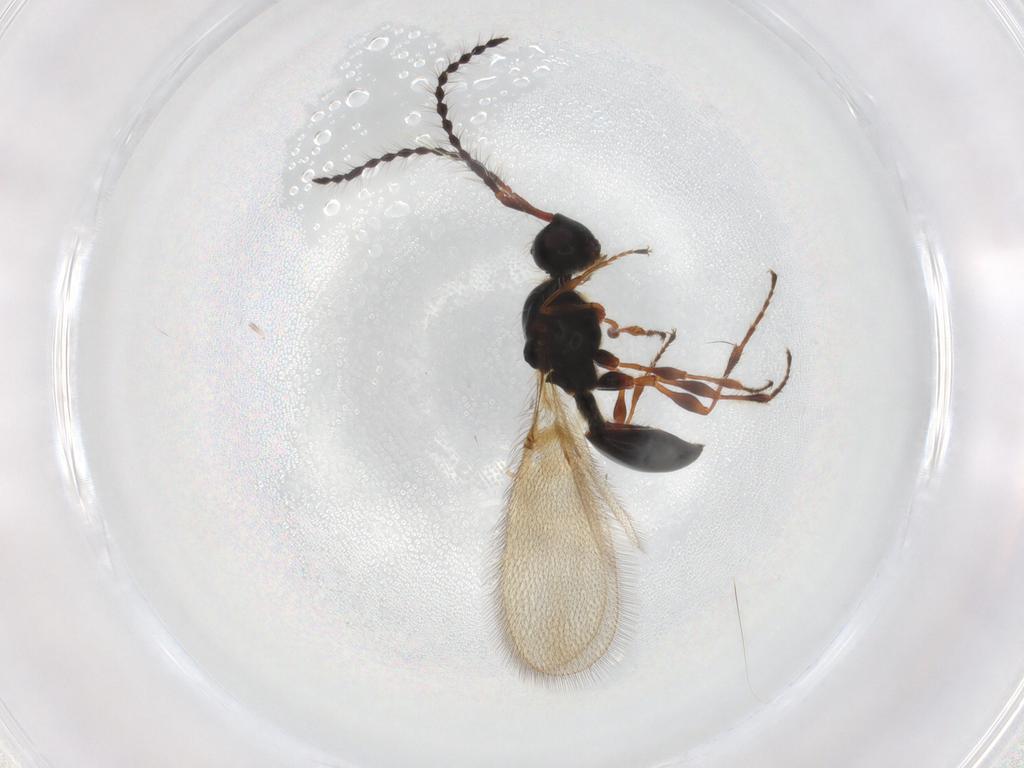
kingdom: Animalia
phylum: Arthropoda
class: Insecta
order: Hymenoptera
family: Diapriidae
